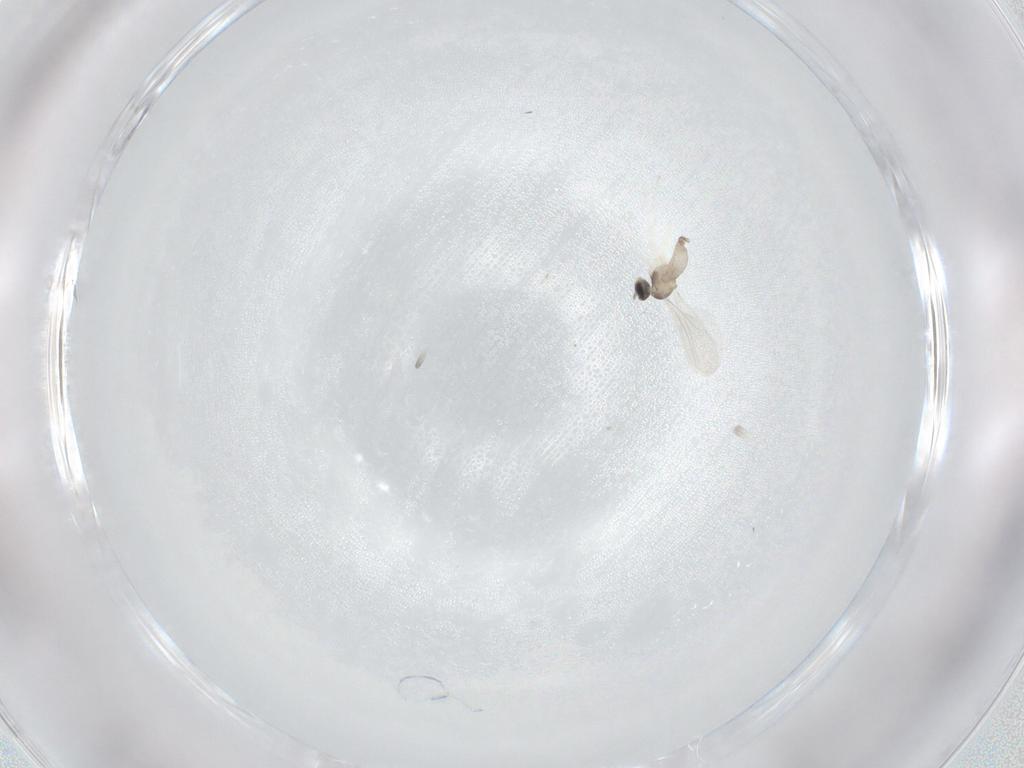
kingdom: Animalia
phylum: Arthropoda
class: Insecta
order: Diptera
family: Cecidomyiidae
